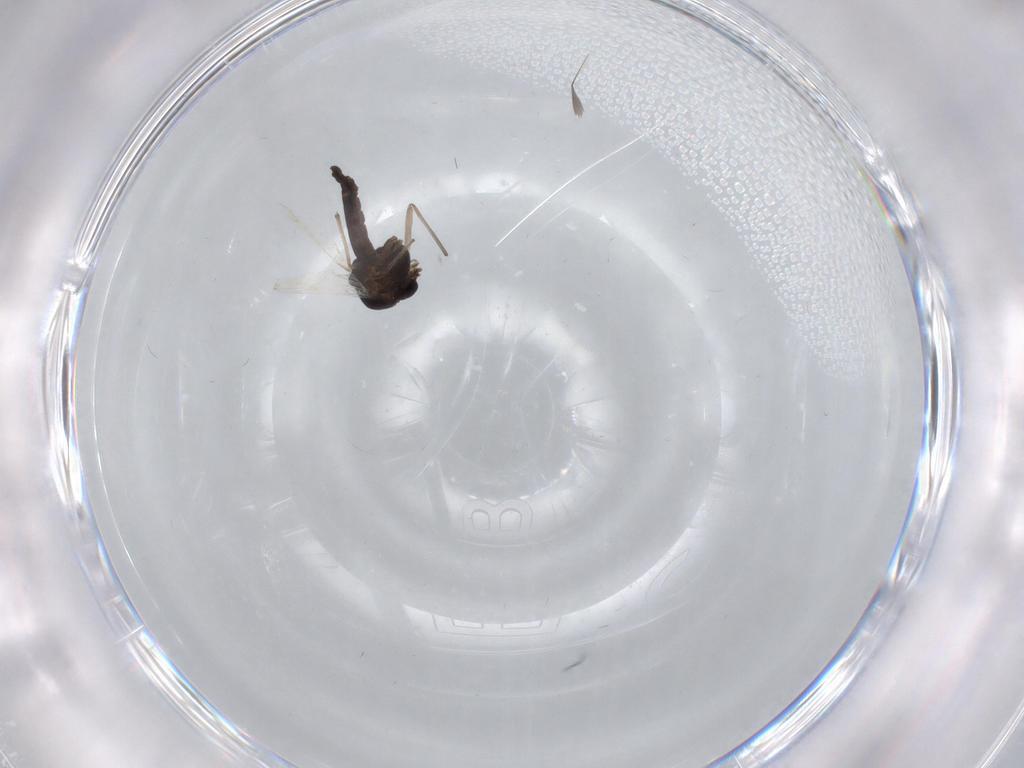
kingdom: Animalia
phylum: Arthropoda
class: Insecta
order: Diptera
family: Chironomidae
